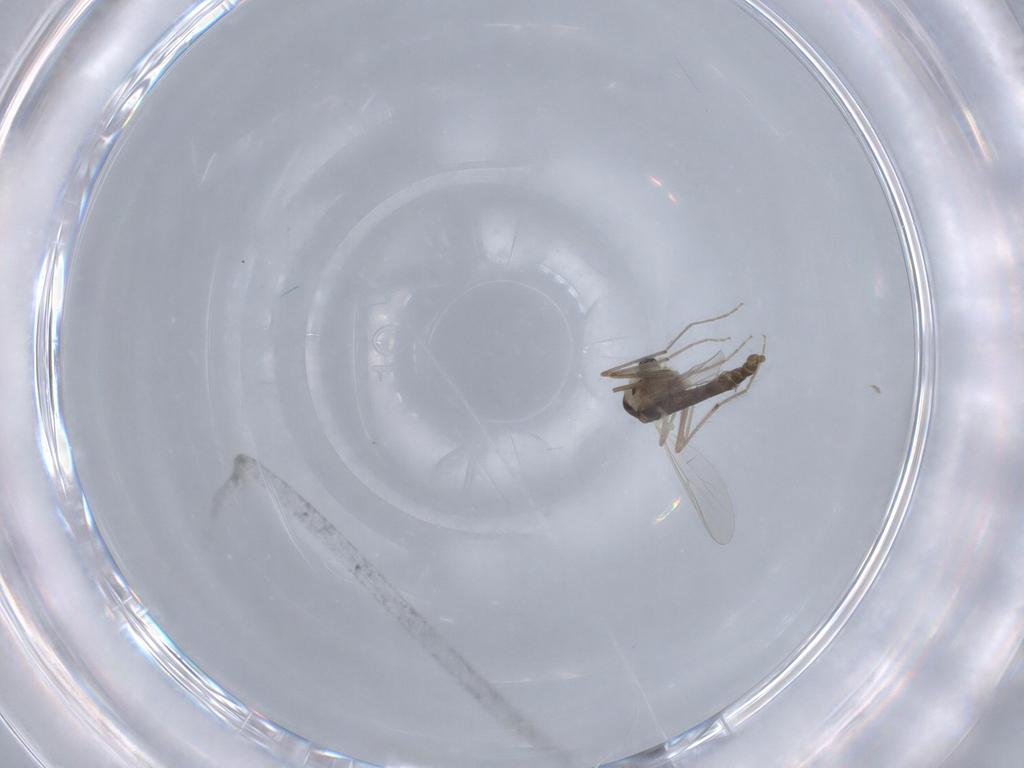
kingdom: Animalia
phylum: Arthropoda
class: Insecta
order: Diptera
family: Chironomidae
